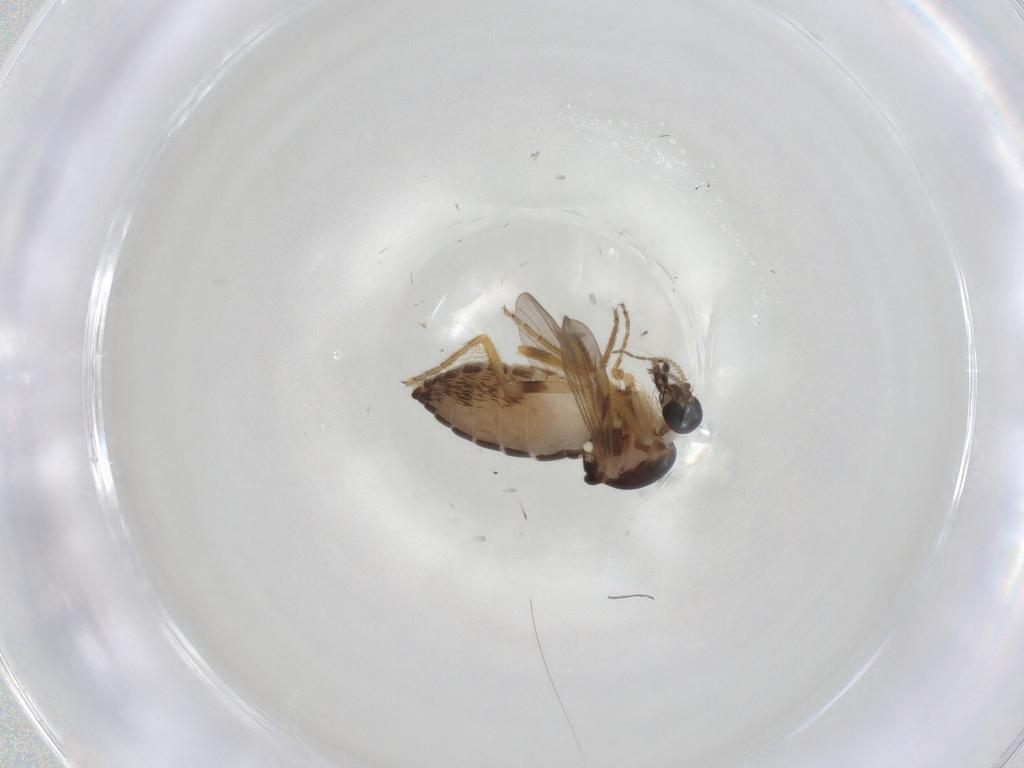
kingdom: Animalia
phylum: Arthropoda
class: Insecta
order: Diptera
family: Ceratopogonidae
